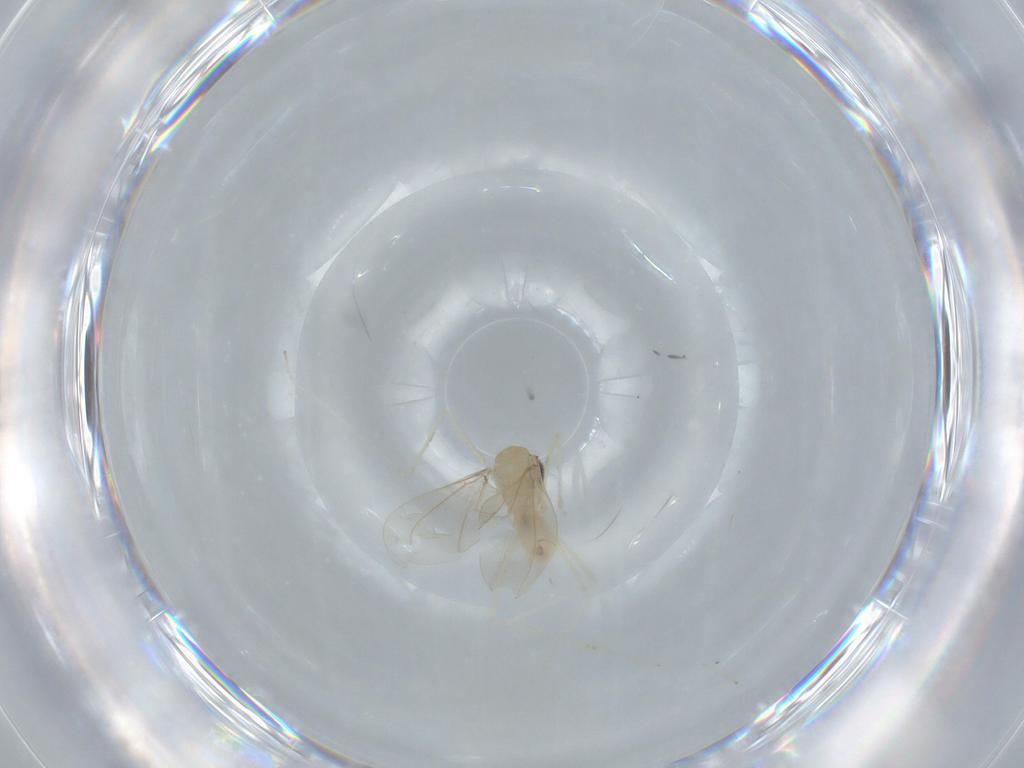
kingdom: Animalia
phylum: Arthropoda
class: Insecta
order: Diptera
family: Cecidomyiidae
